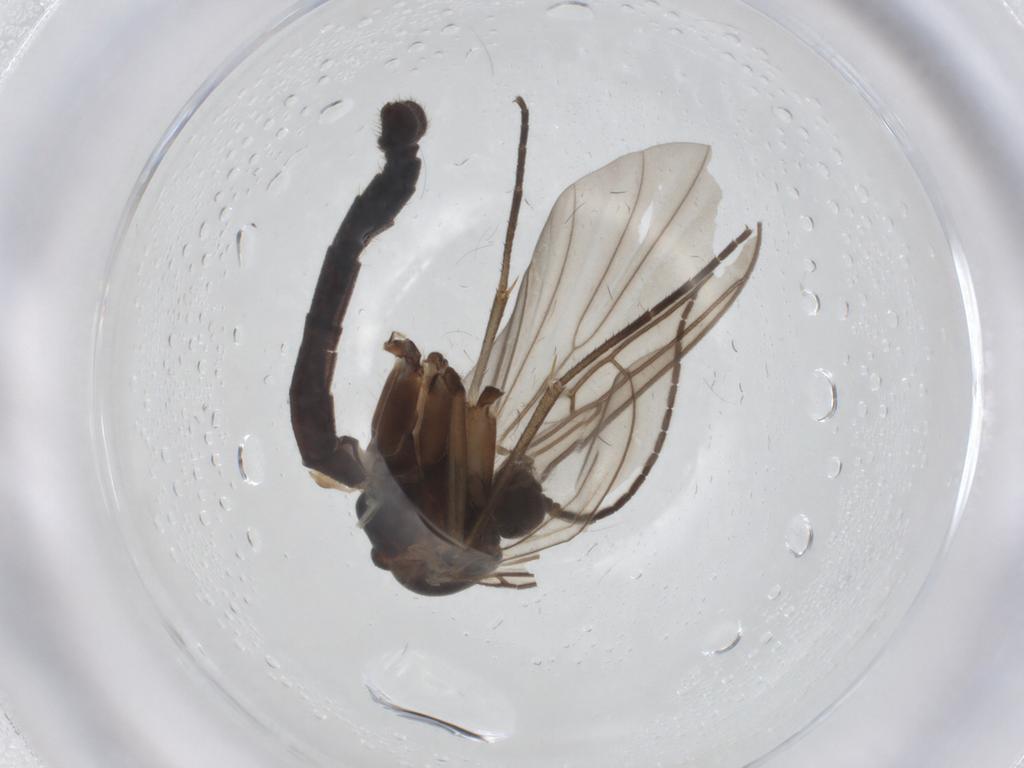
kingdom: Animalia
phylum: Arthropoda
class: Insecta
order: Diptera
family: Mycetophilidae
